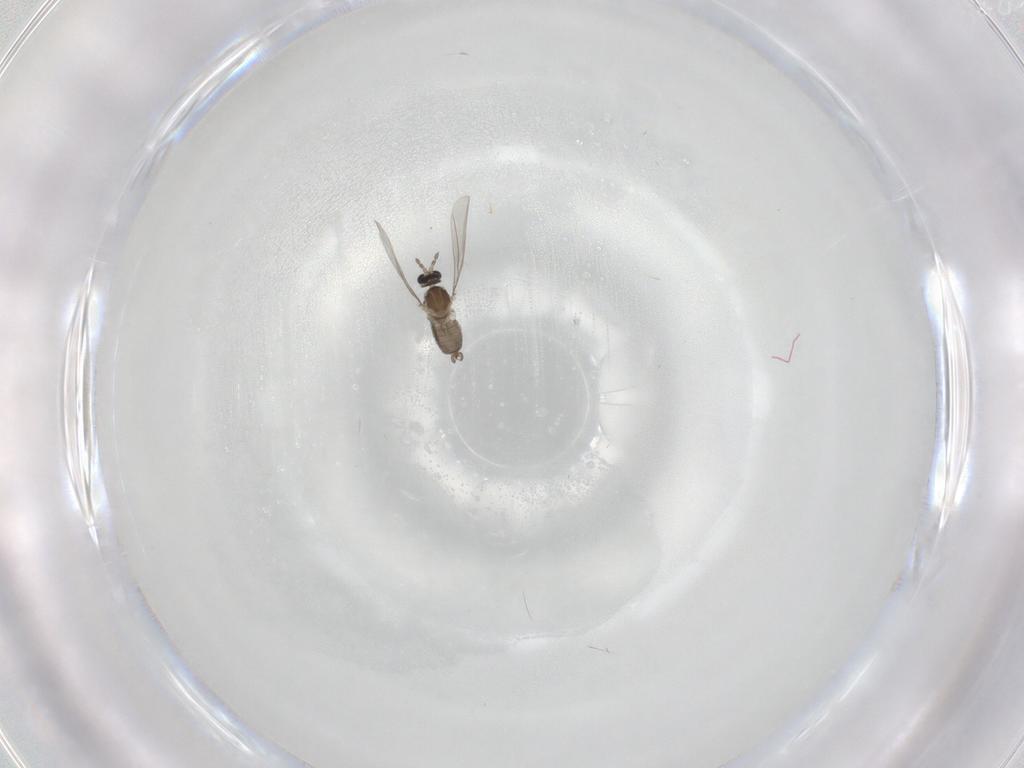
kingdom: Animalia
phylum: Arthropoda
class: Insecta
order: Diptera
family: Cecidomyiidae
